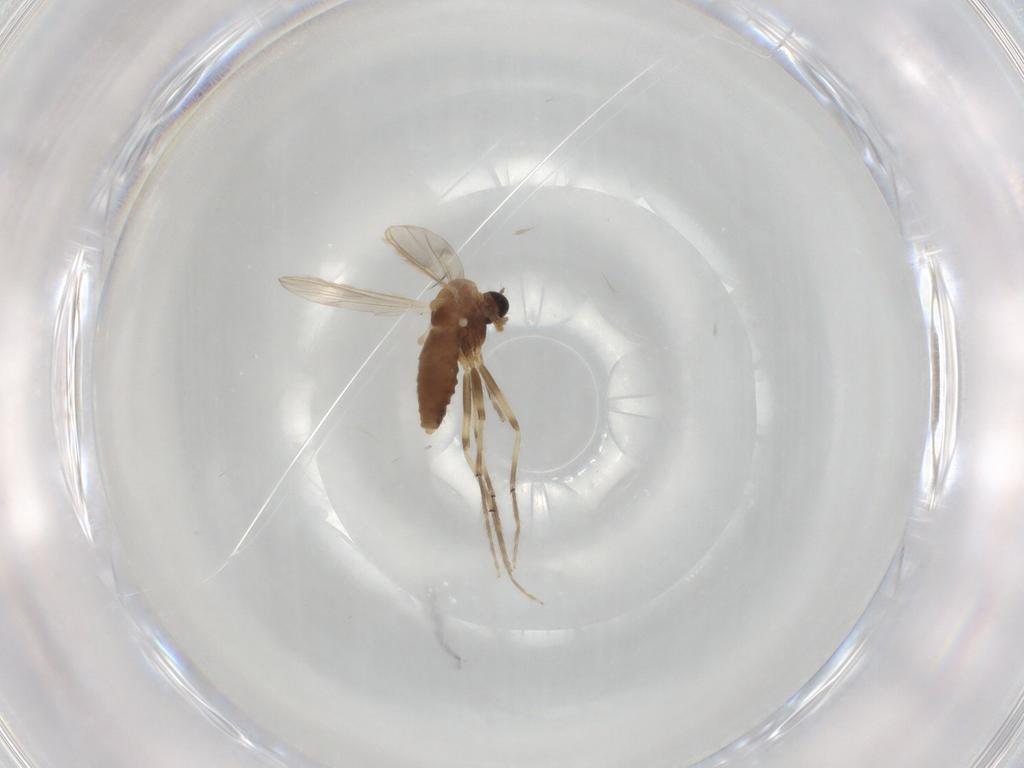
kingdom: Animalia
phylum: Arthropoda
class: Insecta
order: Diptera
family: Chironomidae
